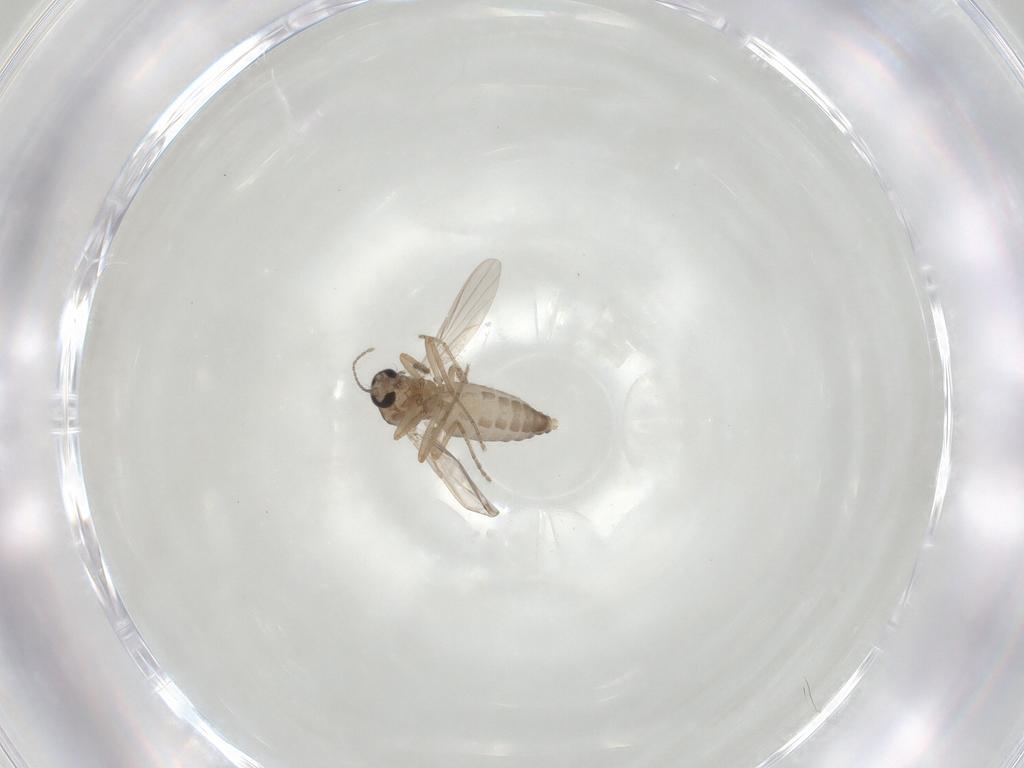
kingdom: Animalia
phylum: Arthropoda
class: Insecta
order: Diptera
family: Ceratopogonidae
